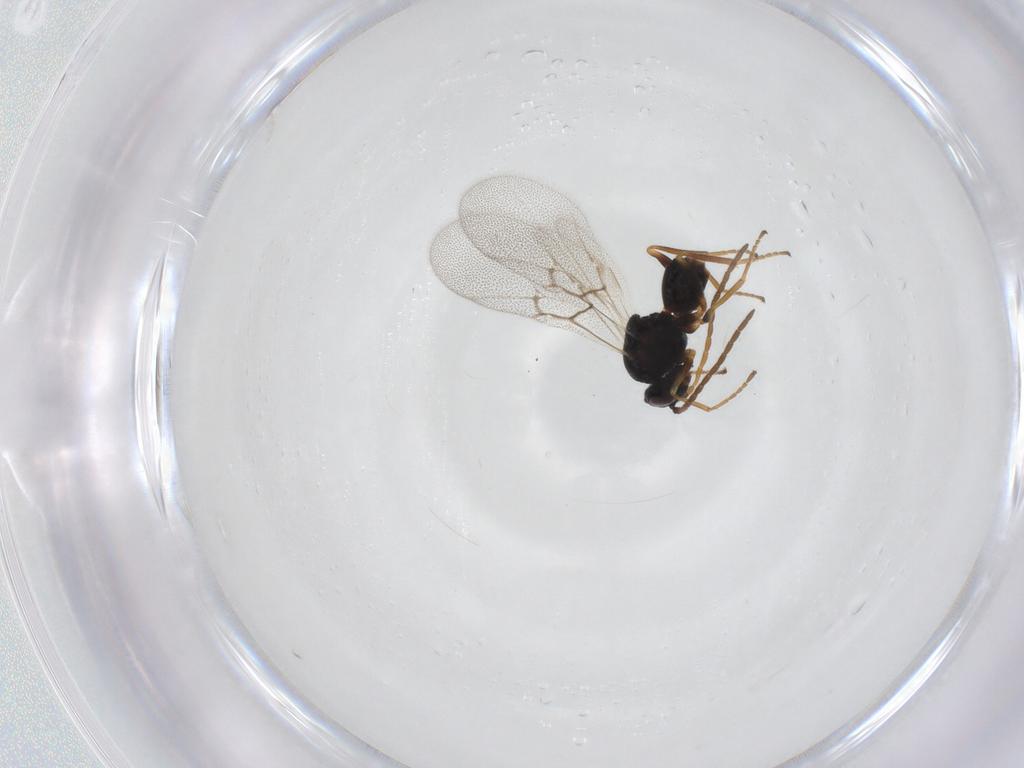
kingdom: Animalia
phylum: Arthropoda
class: Insecta
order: Hymenoptera
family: Cynipidae
